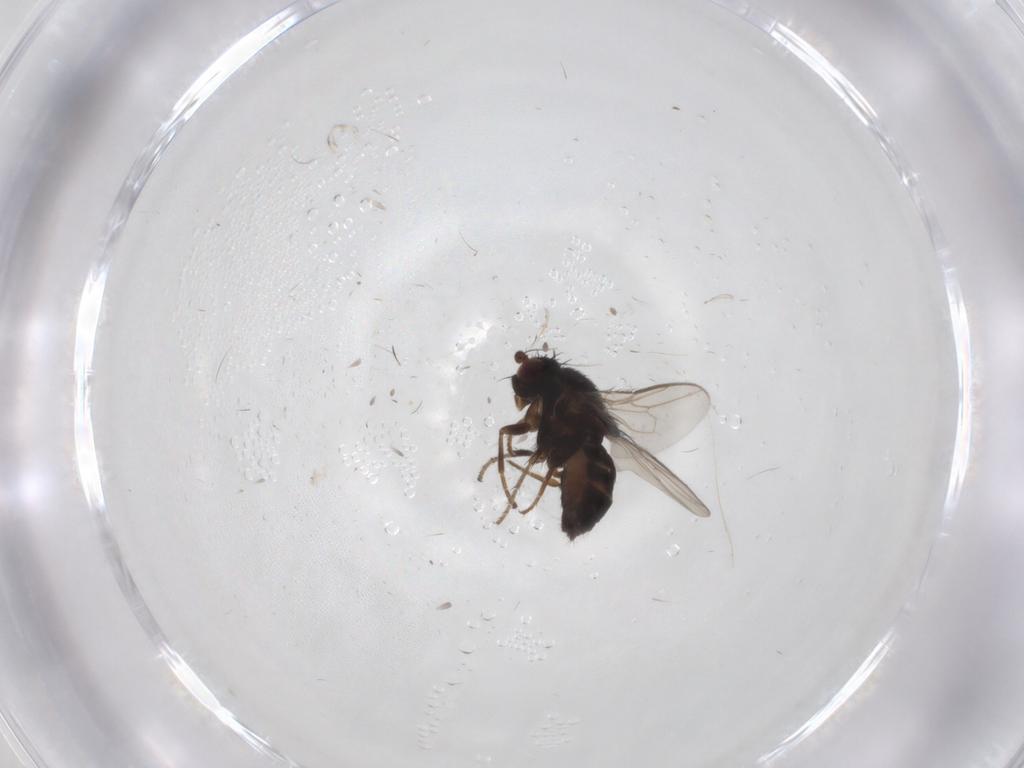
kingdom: Animalia
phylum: Arthropoda
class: Insecta
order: Diptera
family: Sphaeroceridae
